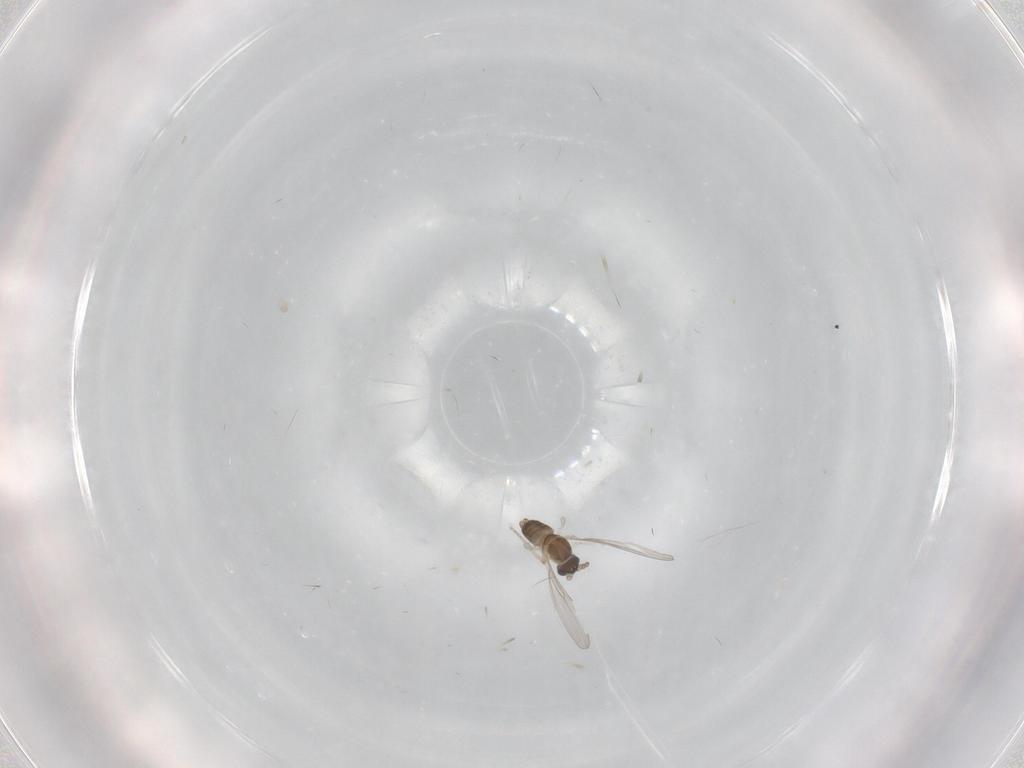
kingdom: Animalia
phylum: Arthropoda
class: Insecta
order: Diptera
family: Cecidomyiidae
